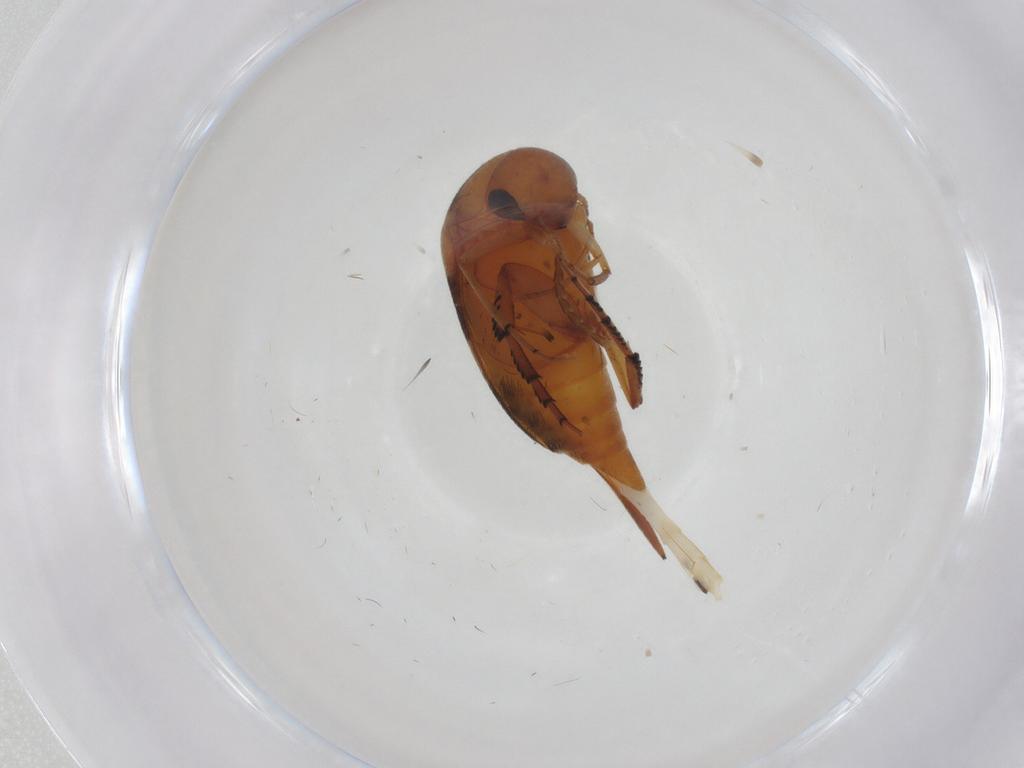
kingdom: Animalia
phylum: Arthropoda
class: Insecta
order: Coleoptera
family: Mordellidae
